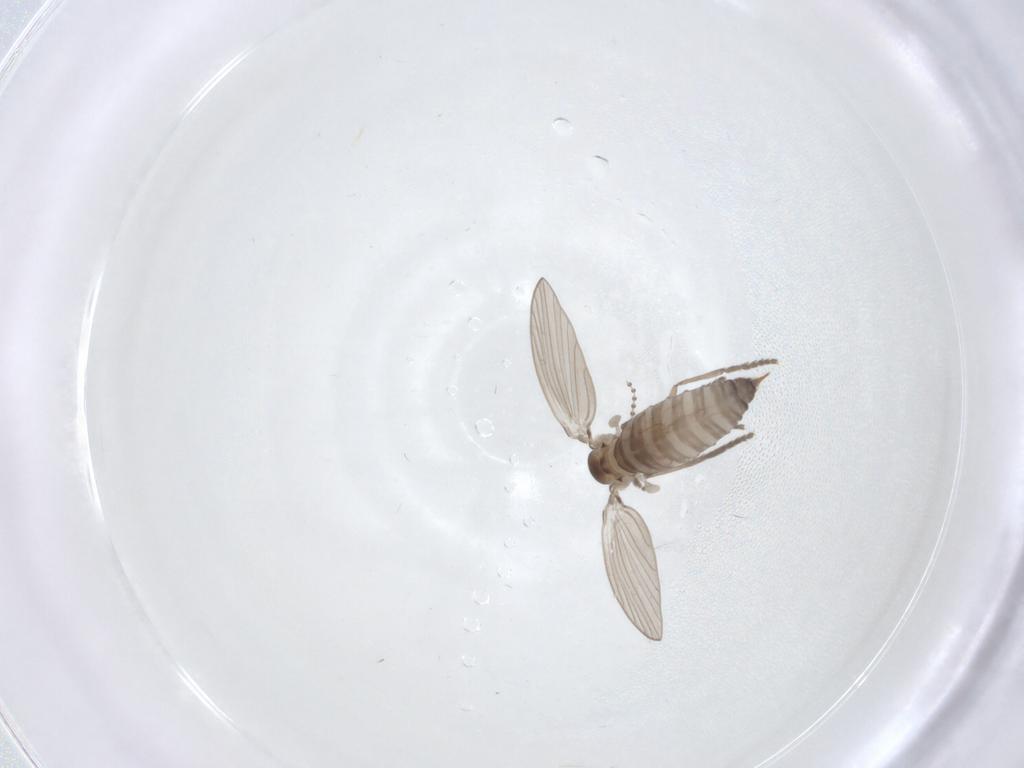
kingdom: Animalia
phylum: Arthropoda
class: Insecta
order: Diptera
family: Psychodidae
